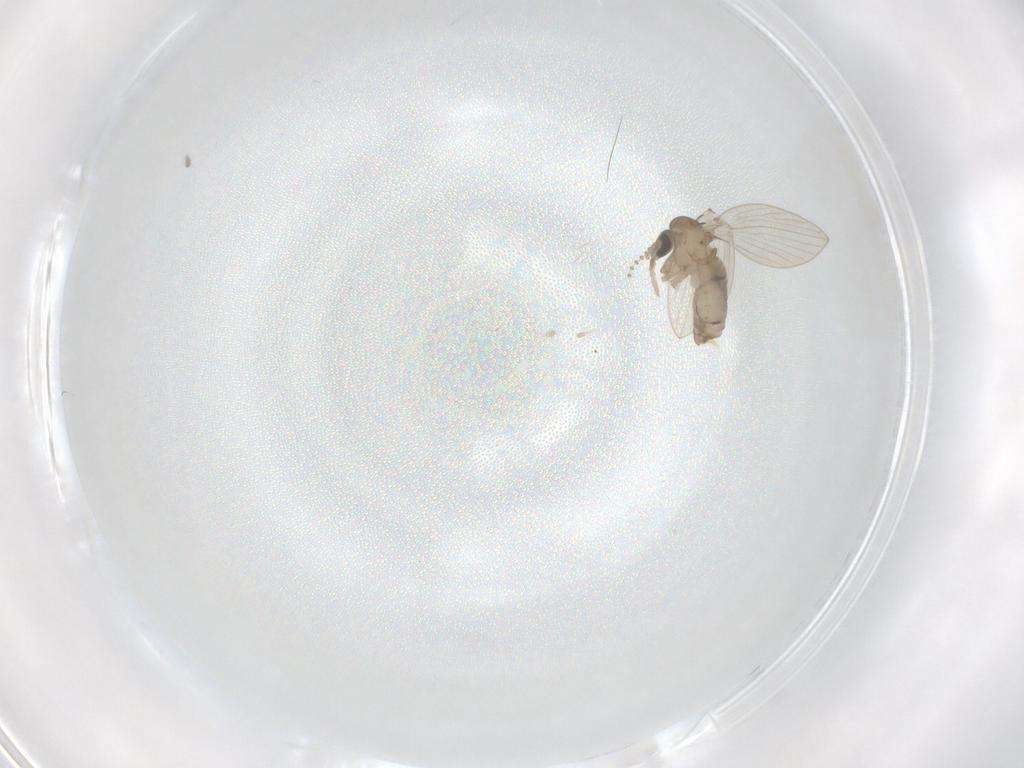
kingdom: Animalia
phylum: Arthropoda
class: Insecta
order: Diptera
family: Psychodidae
